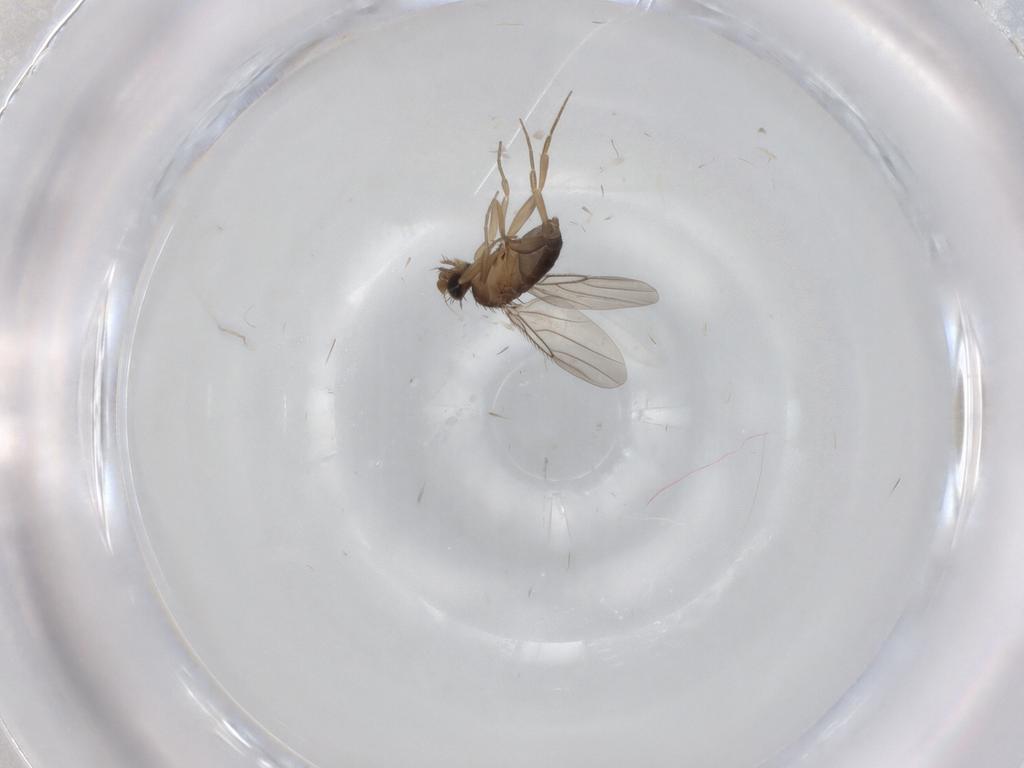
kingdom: Animalia
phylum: Arthropoda
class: Insecta
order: Diptera
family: Phoridae
